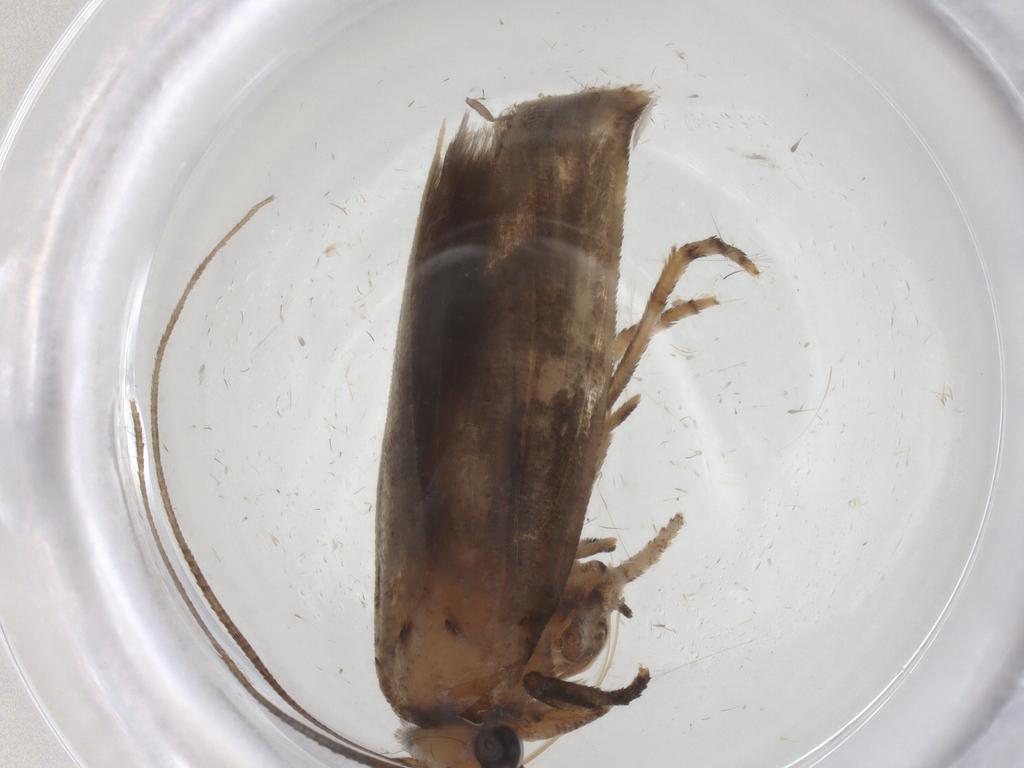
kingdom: Animalia
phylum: Arthropoda
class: Insecta
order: Lepidoptera
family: Yponomeutidae
